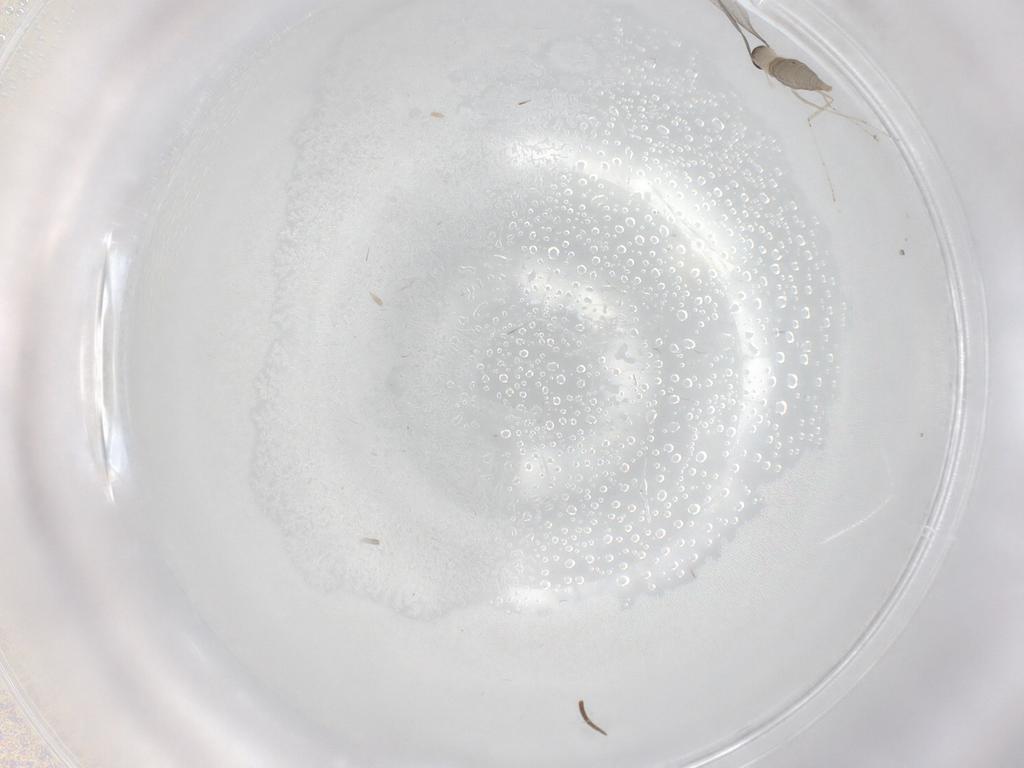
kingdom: Animalia
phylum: Arthropoda
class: Insecta
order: Diptera
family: Mycetophilidae
